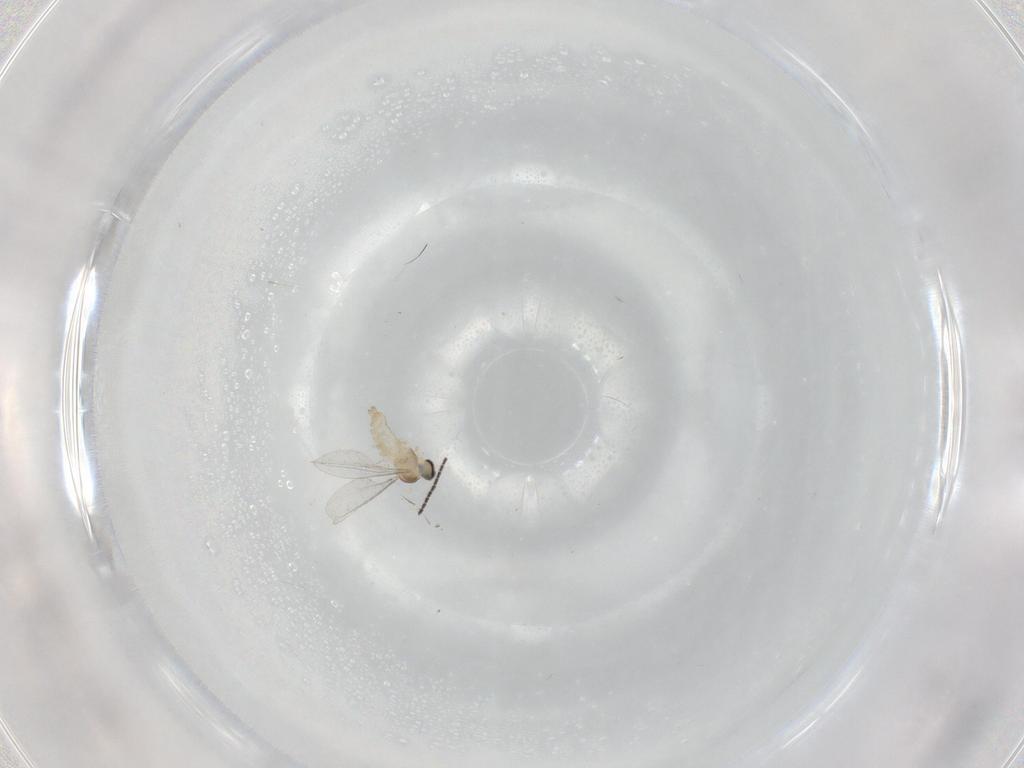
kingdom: Animalia
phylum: Arthropoda
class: Insecta
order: Diptera
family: Cecidomyiidae
